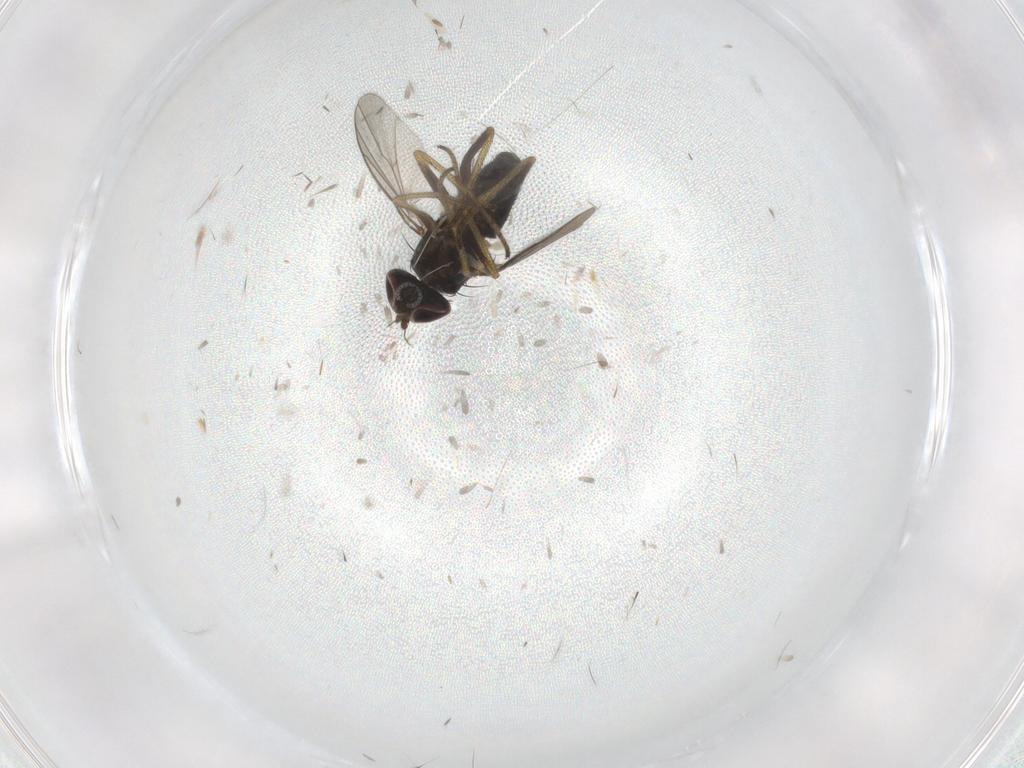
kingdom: Animalia
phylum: Arthropoda
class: Insecta
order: Diptera
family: Dolichopodidae
